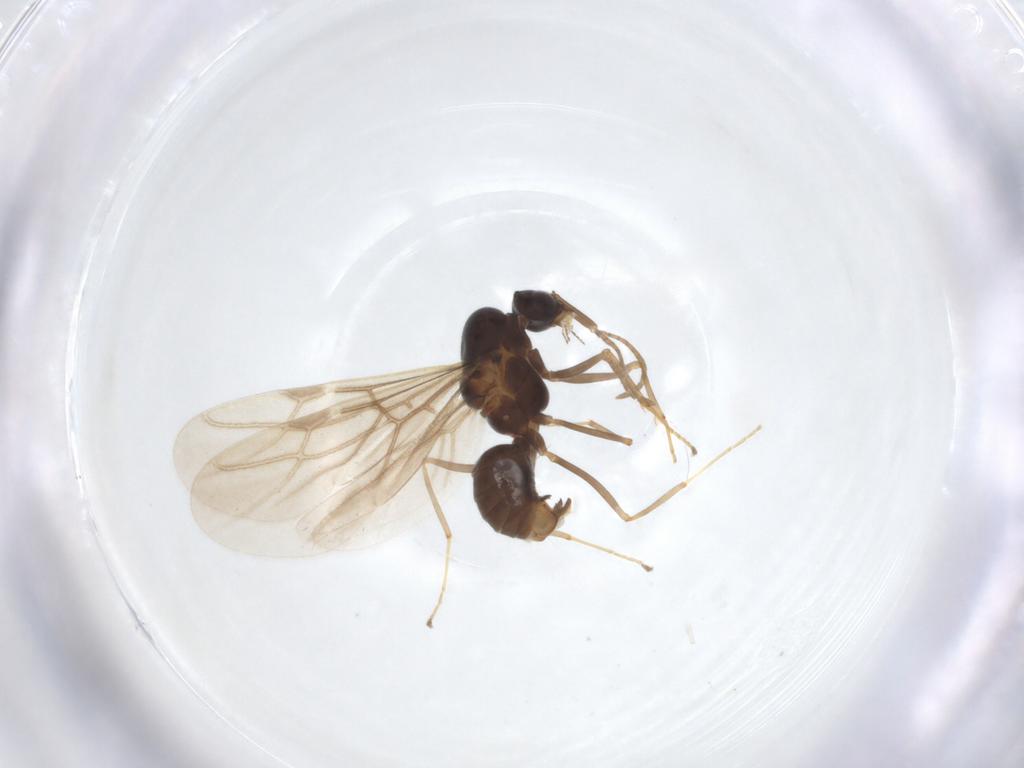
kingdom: Animalia
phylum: Arthropoda
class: Insecta
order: Hymenoptera
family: Formicidae
